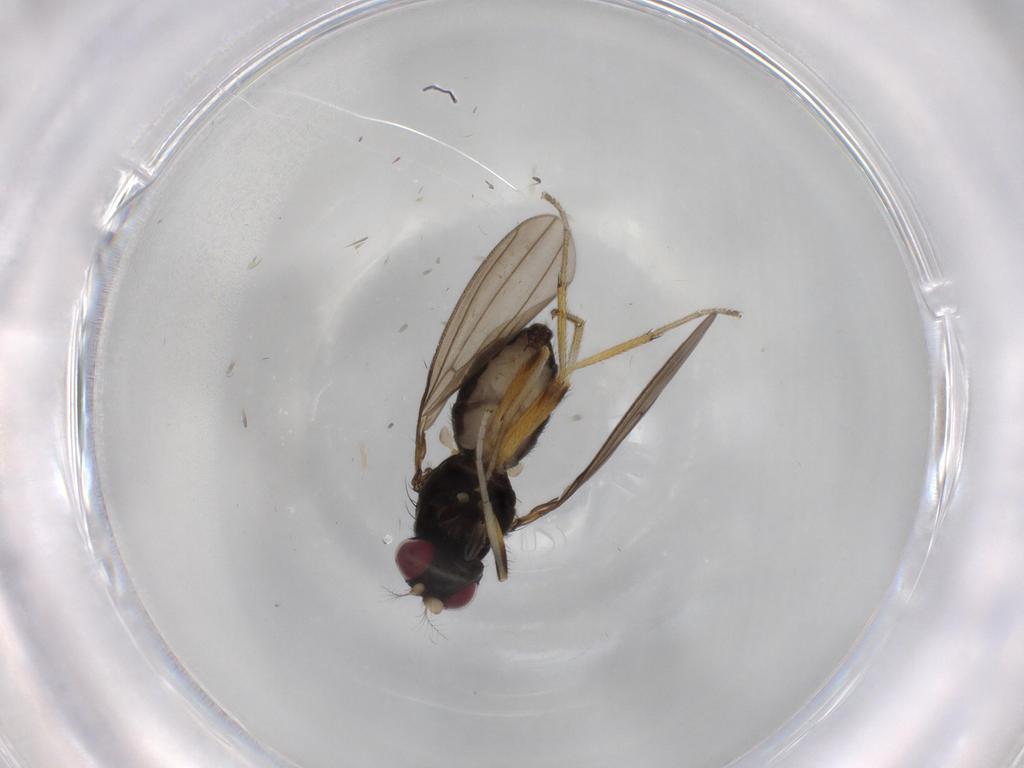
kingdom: Animalia
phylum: Arthropoda
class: Insecta
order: Diptera
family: Lauxaniidae
